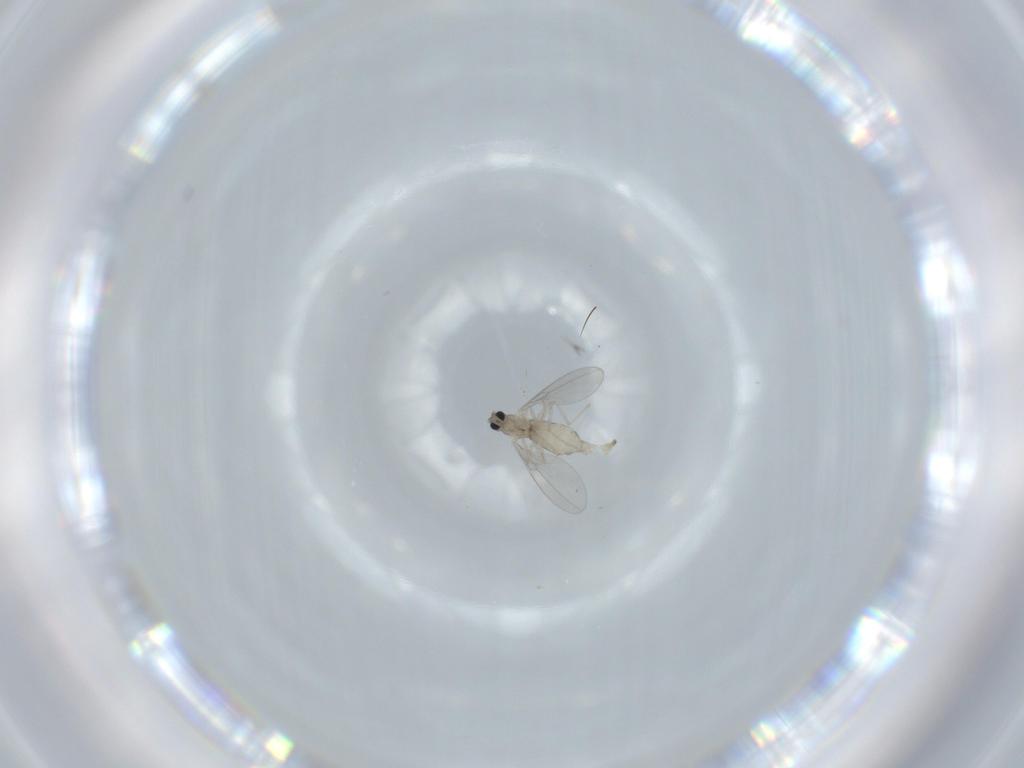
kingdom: Animalia
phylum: Arthropoda
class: Insecta
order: Diptera
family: Cecidomyiidae
